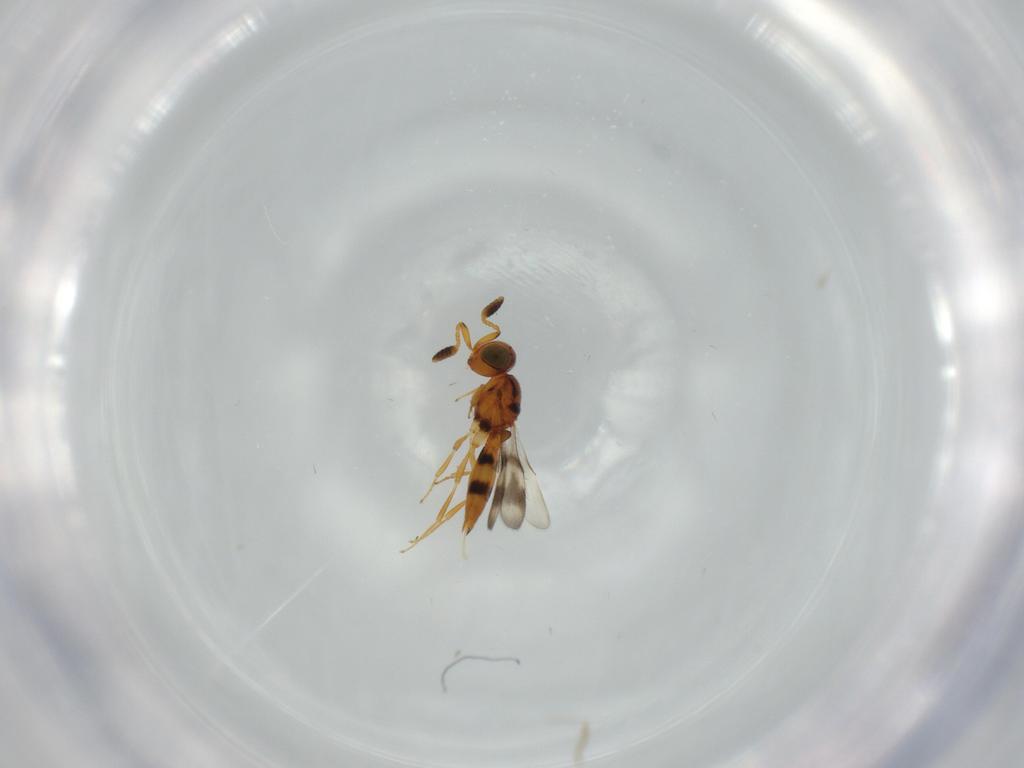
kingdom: Animalia
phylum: Arthropoda
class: Insecta
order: Hymenoptera
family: Scelionidae
